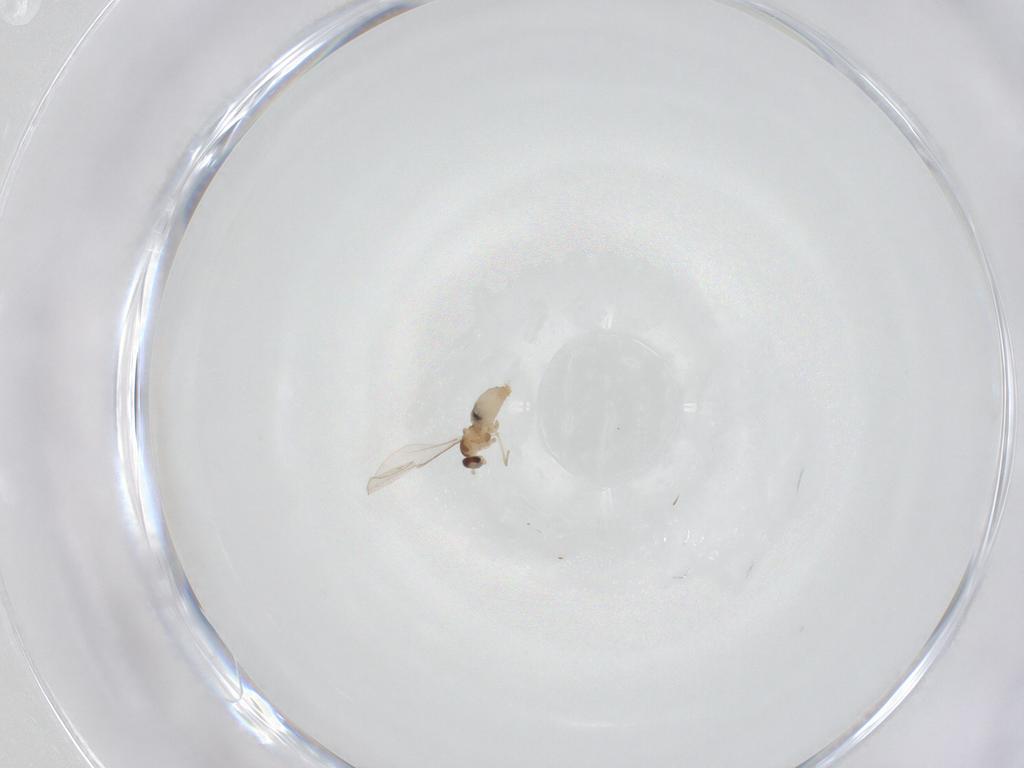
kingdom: Animalia
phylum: Arthropoda
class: Insecta
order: Diptera
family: Cecidomyiidae
